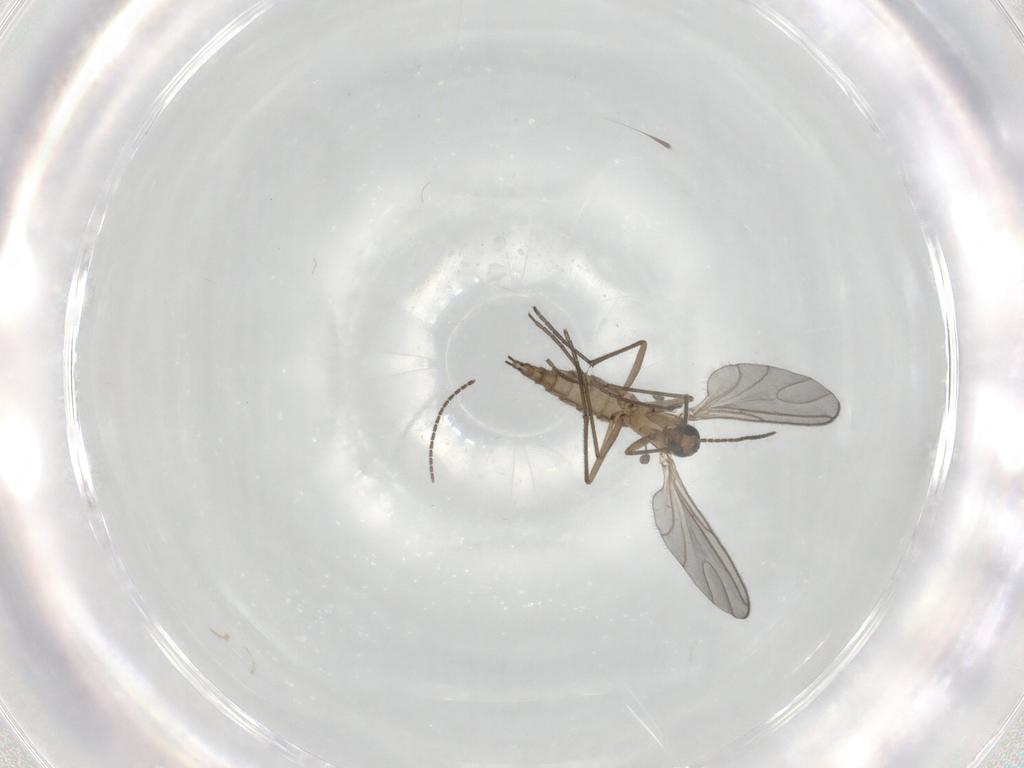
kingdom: Animalia
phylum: Arthropoda
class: Insecta
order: Diptera
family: Sciaridae
